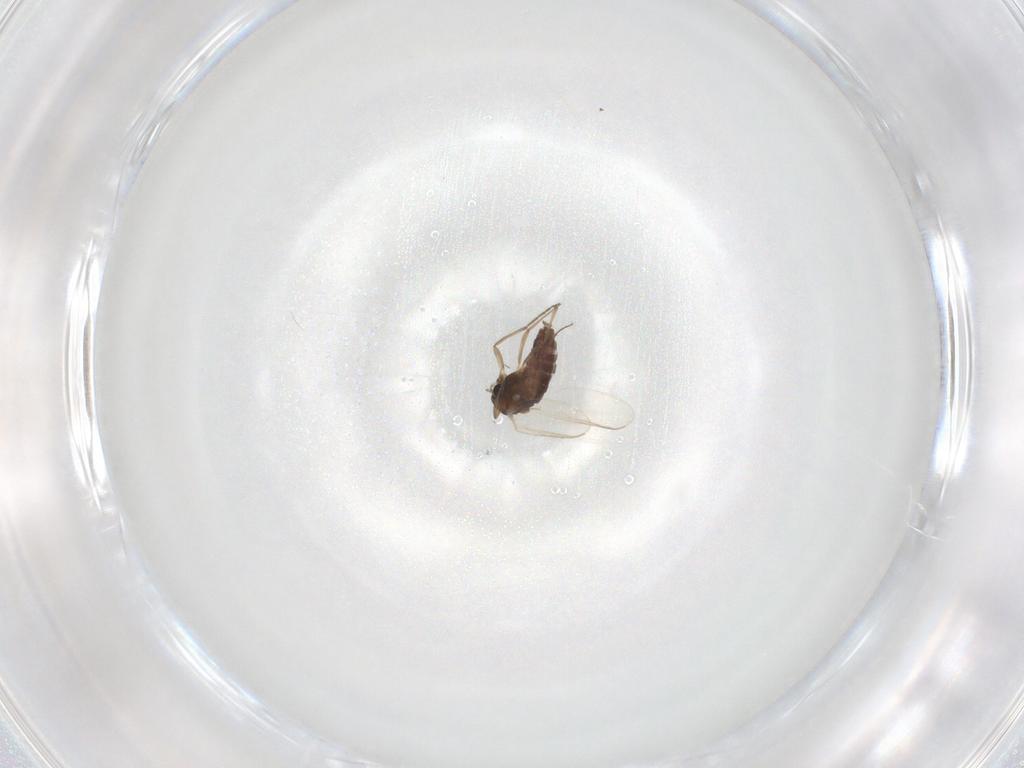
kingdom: Animalia
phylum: Arthropoda
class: Insecta
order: Diptera
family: Chironomidae
